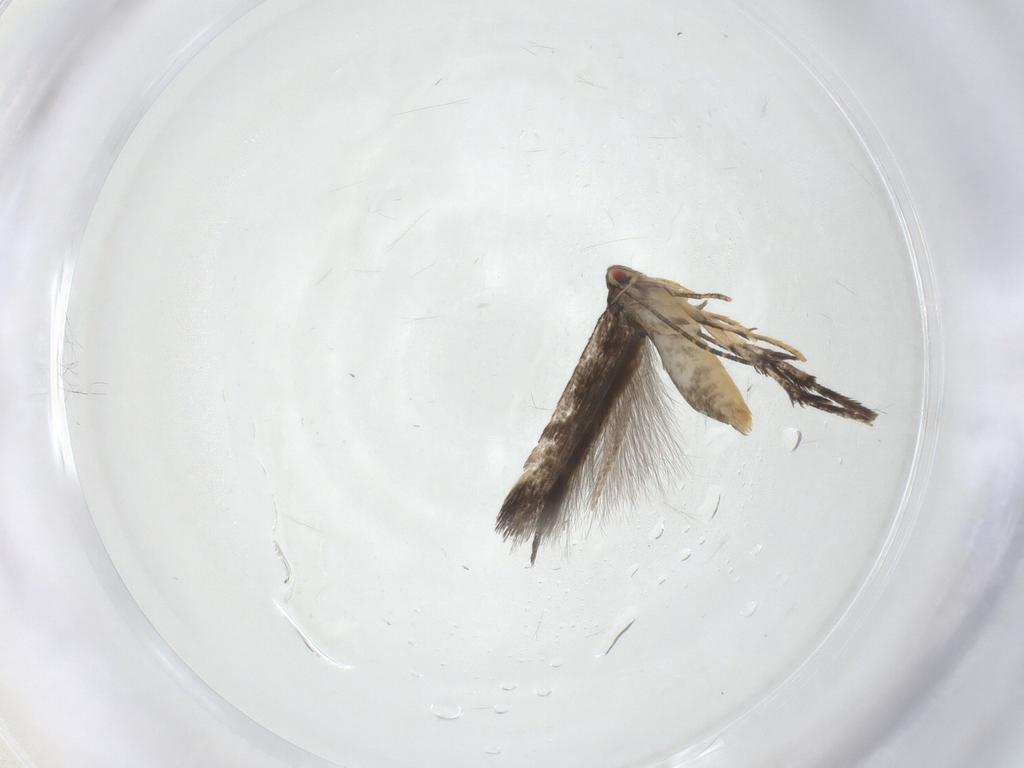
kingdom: Animalia
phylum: Arthropoda
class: Insecta
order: Lepidoptera
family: Momphidae
